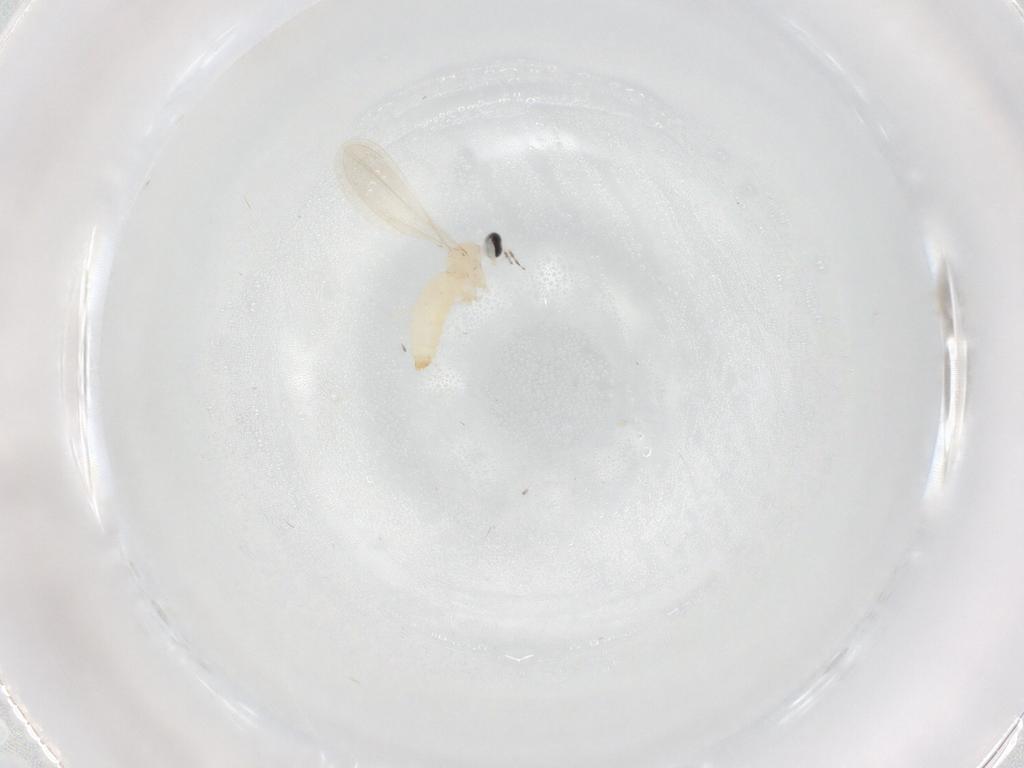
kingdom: Animalia
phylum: Arthropoda
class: Insecta
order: Diptera
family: Cecidomyiidae
